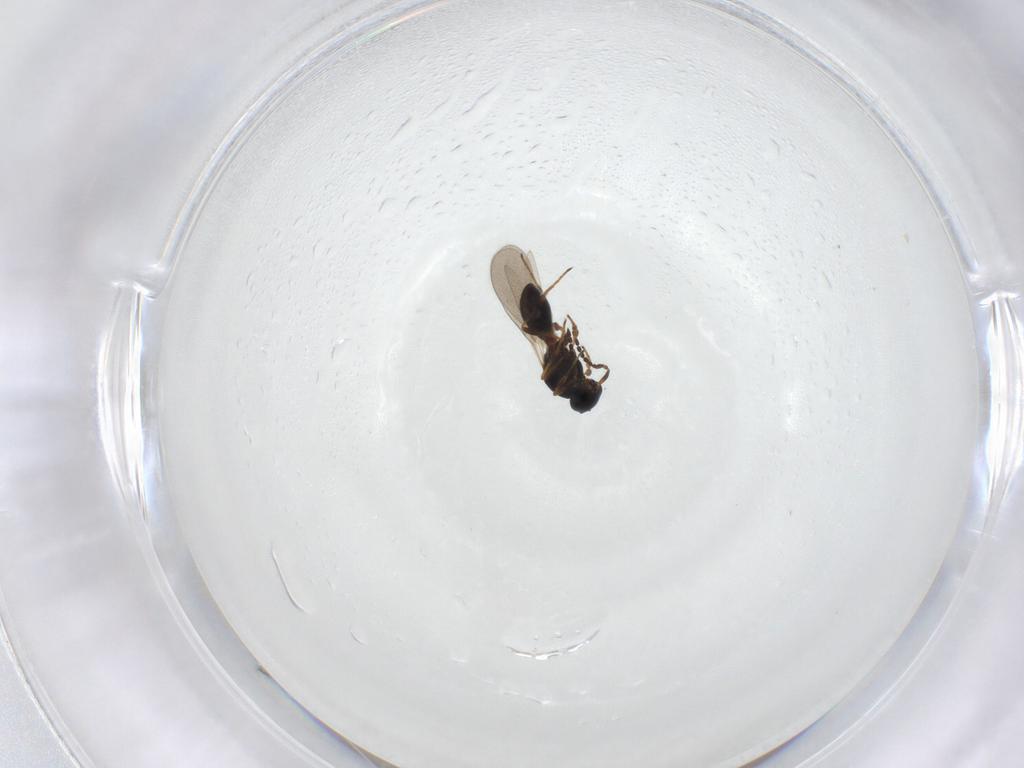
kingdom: Animalia
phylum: Arthropoda
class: Insecta
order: Hymenoptera
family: Platygastridae
